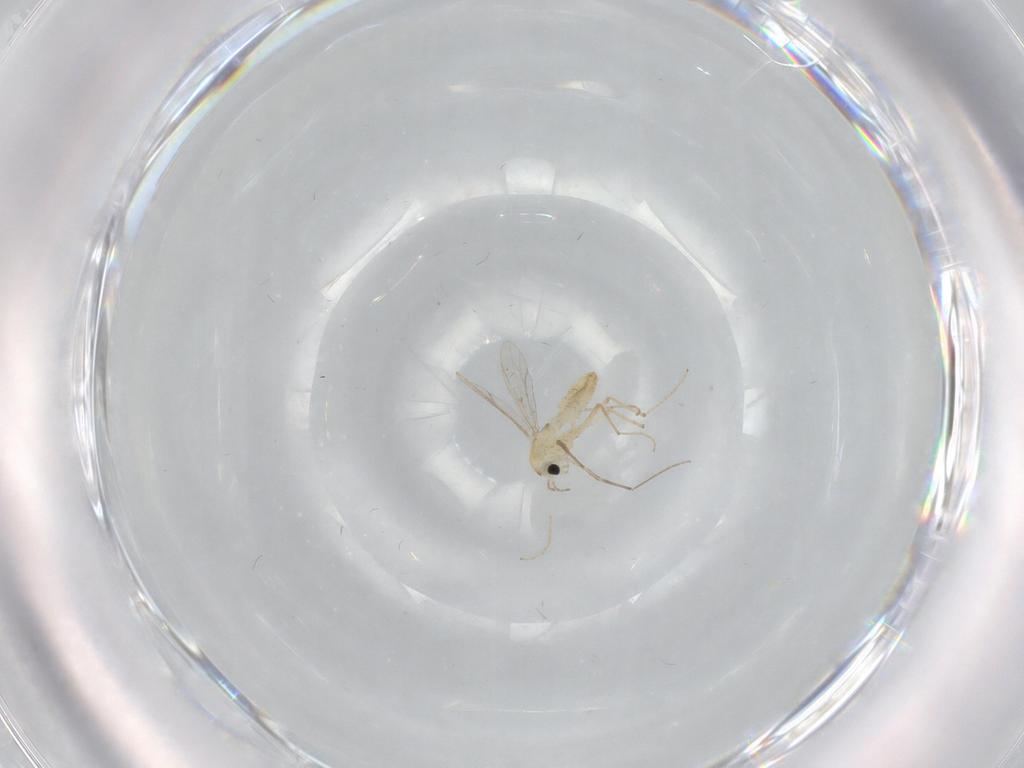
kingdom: Animalia
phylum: Arthropoda
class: Insecta
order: Diptera
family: Chironomidae
